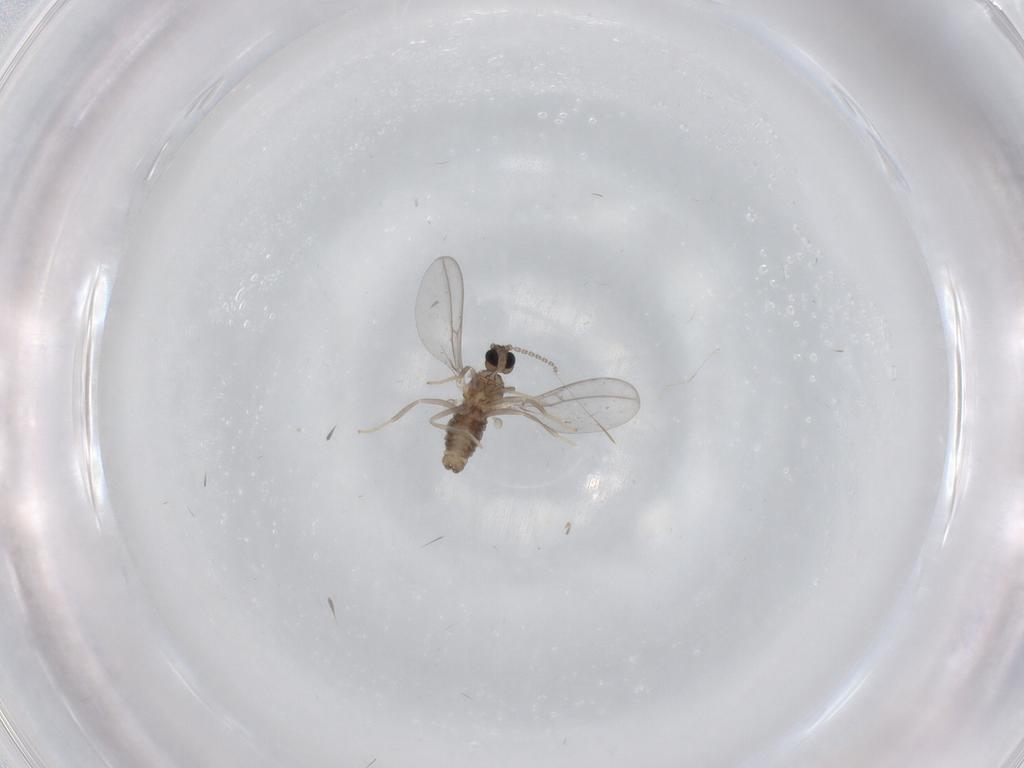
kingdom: Animalia
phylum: Arthropoda
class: Insecta
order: Diptera
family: Cecidomyiidae
